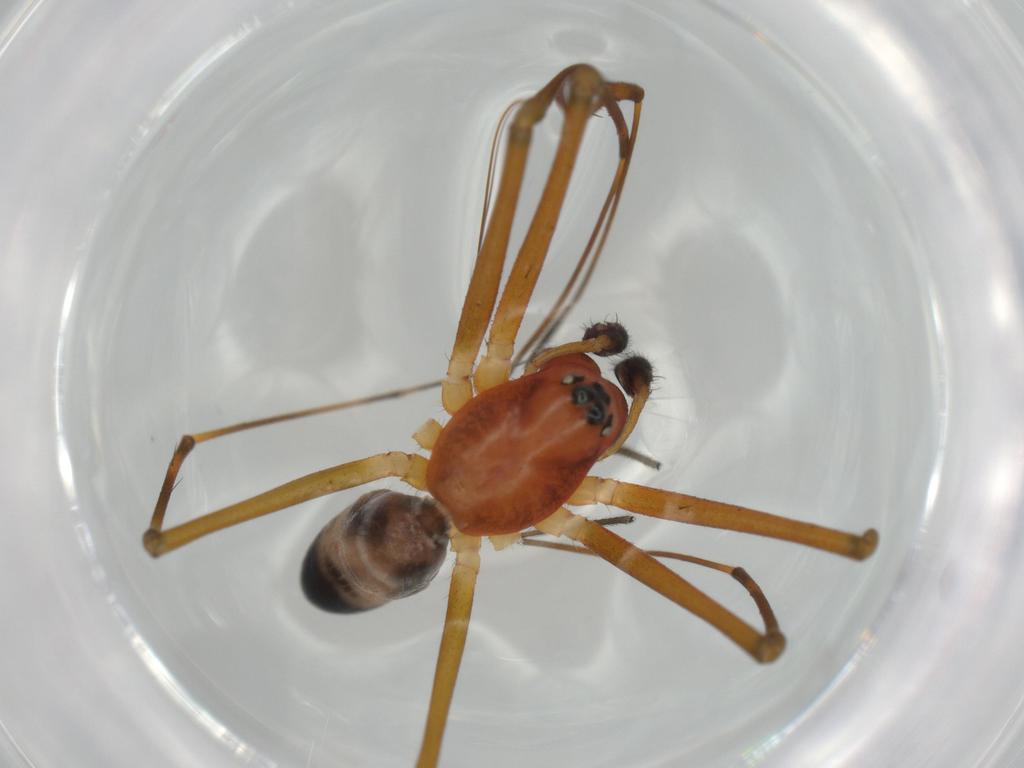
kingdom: Animalia
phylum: Arthropoda
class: Arachnida
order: Araneae
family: Linyphiidae
